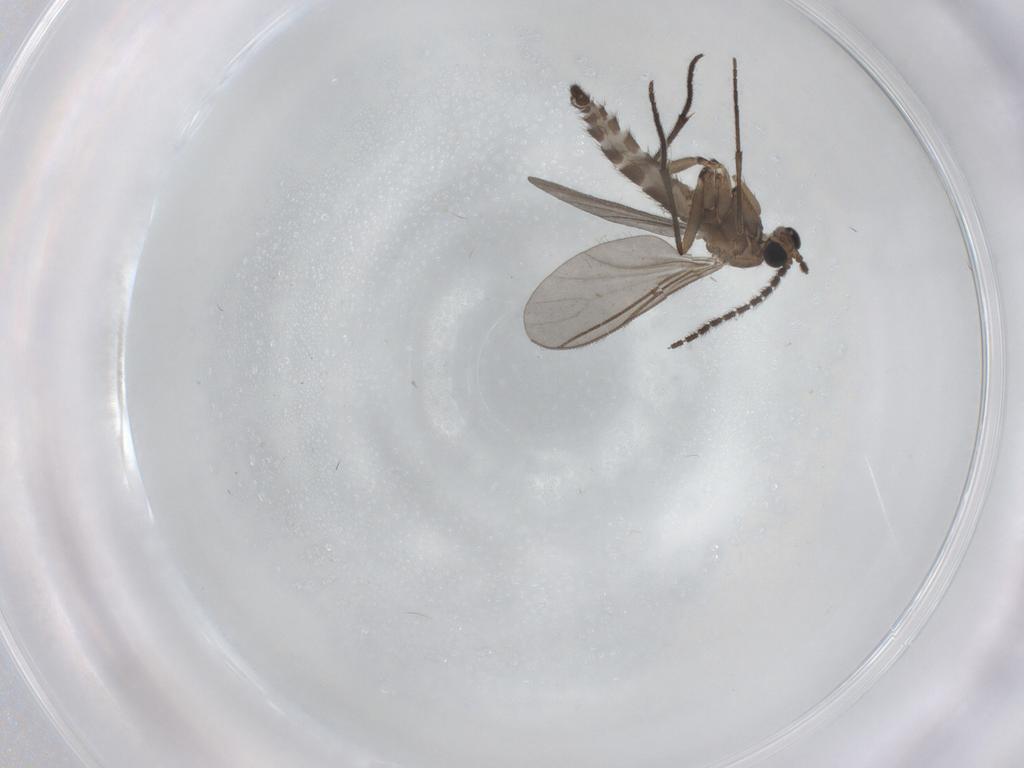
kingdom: Animalia
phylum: Arthropoda
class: Insecta
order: Diptera
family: Sciaridae
